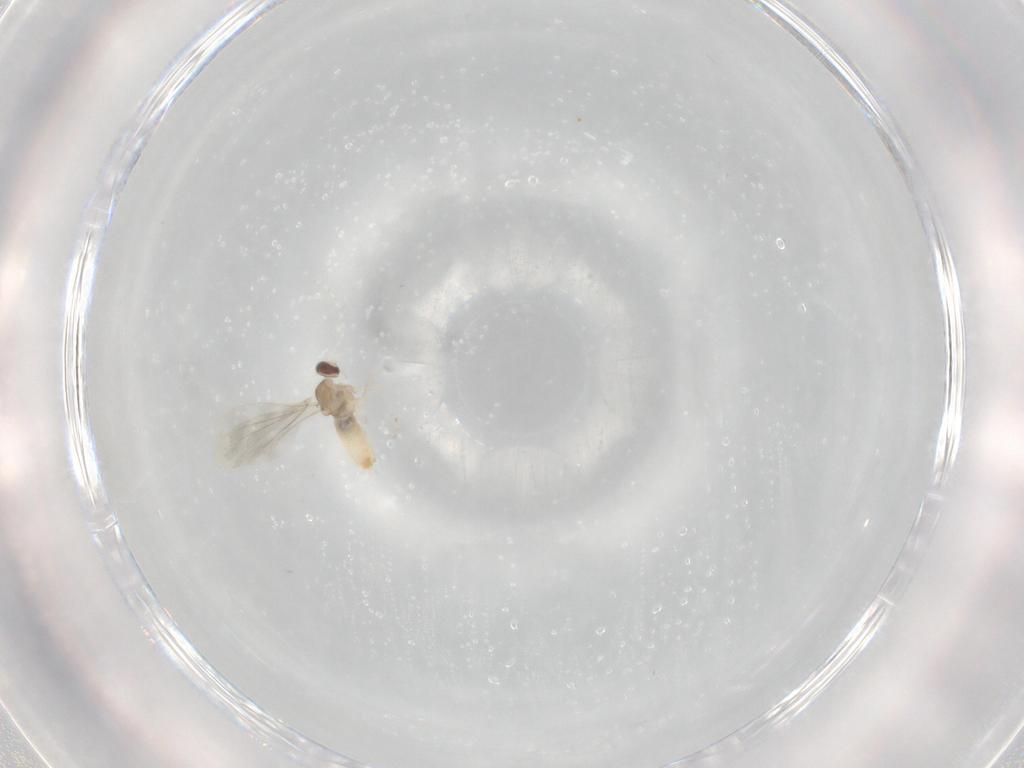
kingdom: Animalia
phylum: Arthropoda
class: Insecta
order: Diptera
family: Cecidomyiidae
